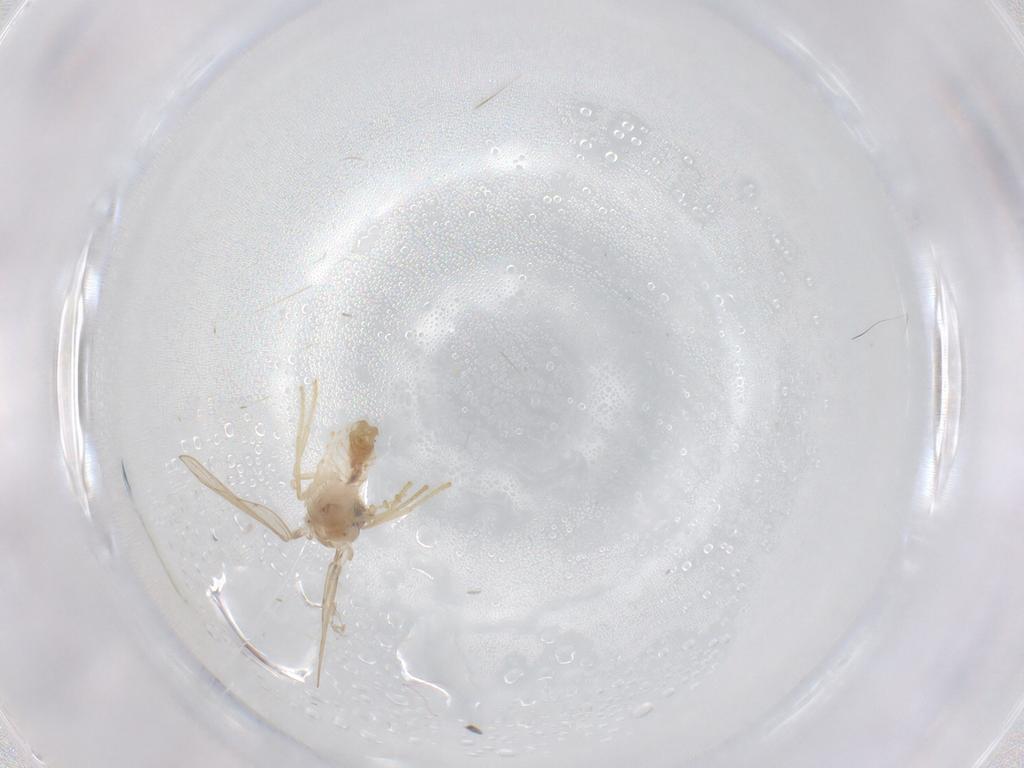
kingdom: Animalia
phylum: Arthropoda
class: Insecta
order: Diptera
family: Psychodidae
